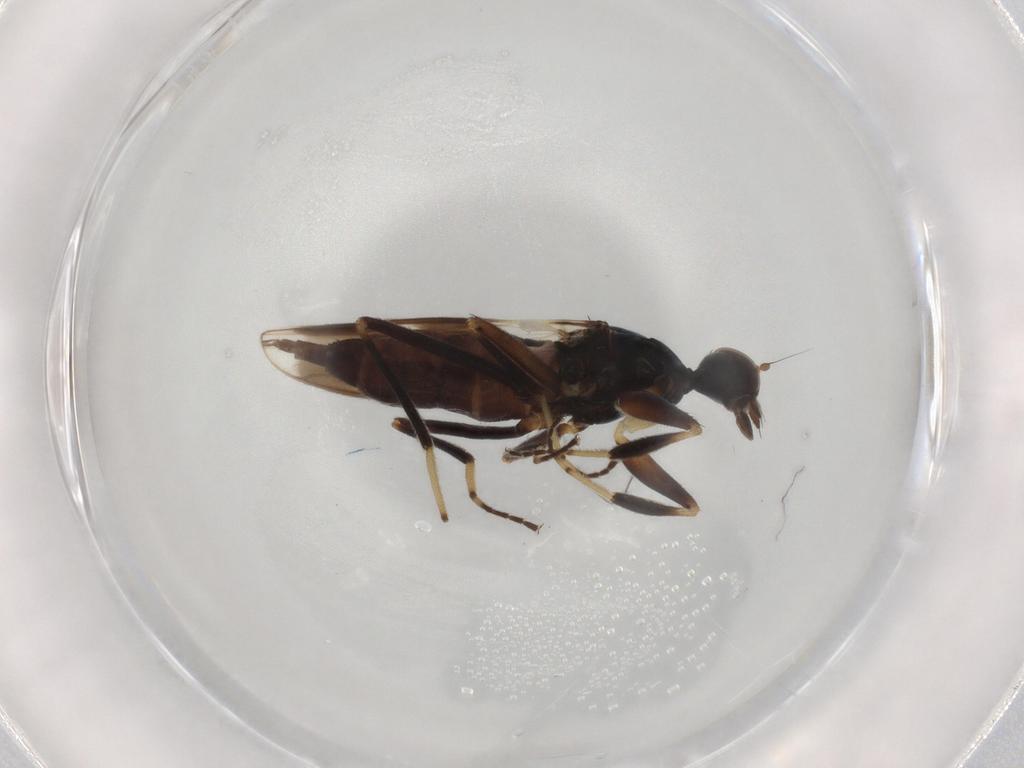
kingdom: Animalia
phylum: Arthropoda
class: Insecta
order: Diptera
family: Hybotidae
